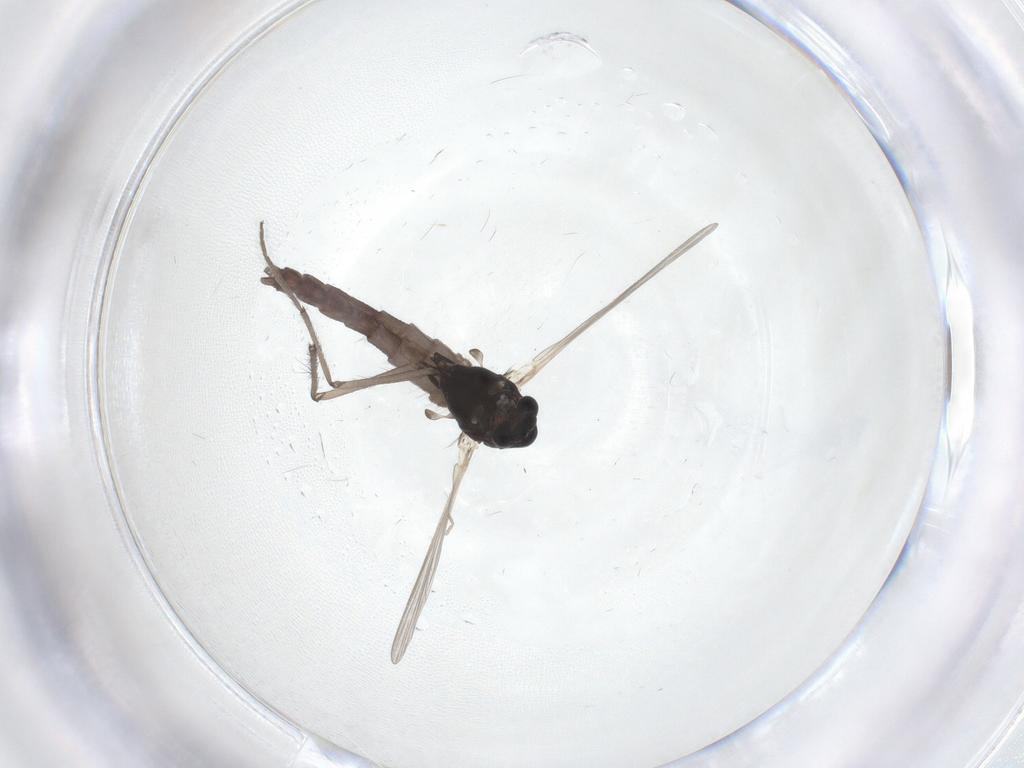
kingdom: Animalia
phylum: Arthropoda
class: Insecta
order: Diptera
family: Chironomidae
